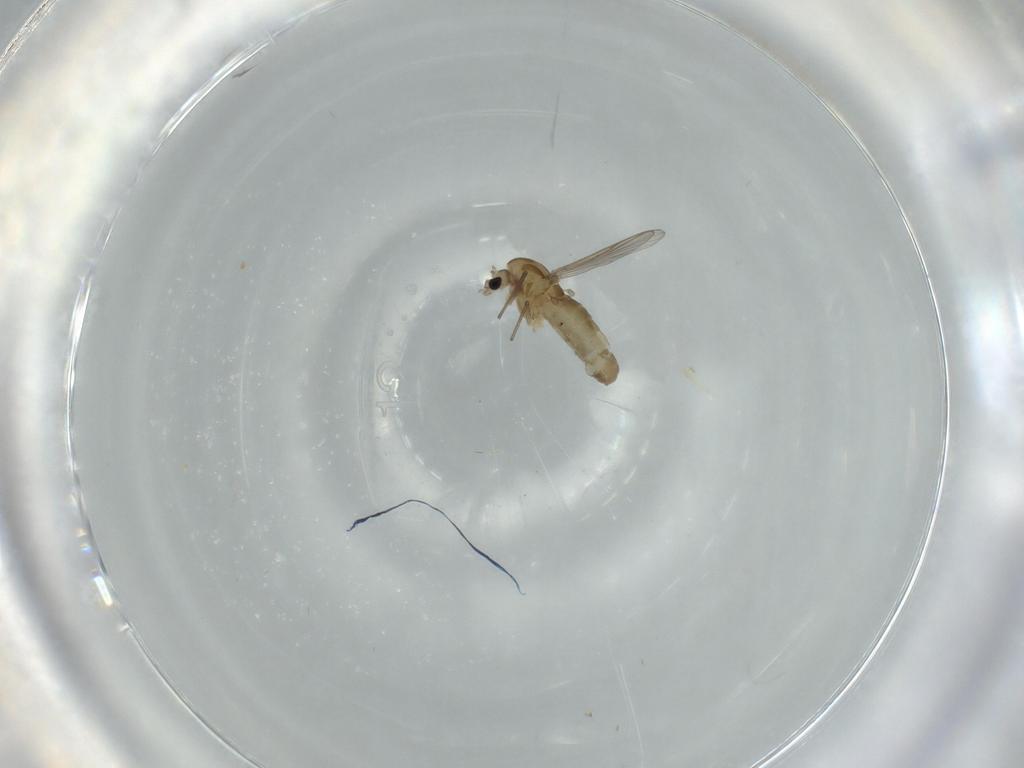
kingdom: Animalia
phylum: Arthropoda
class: Insecta
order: Diptera
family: Chironomidae
